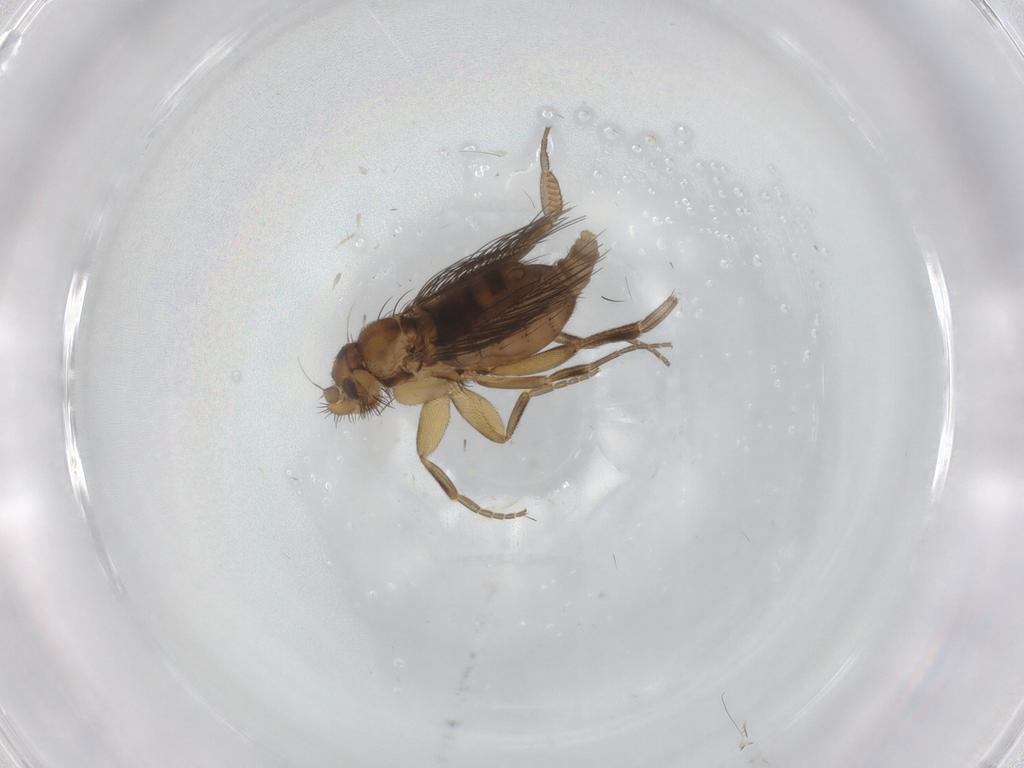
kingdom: Animalia
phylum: Arthropoda
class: Insecta
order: Diptera
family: Phoridae
